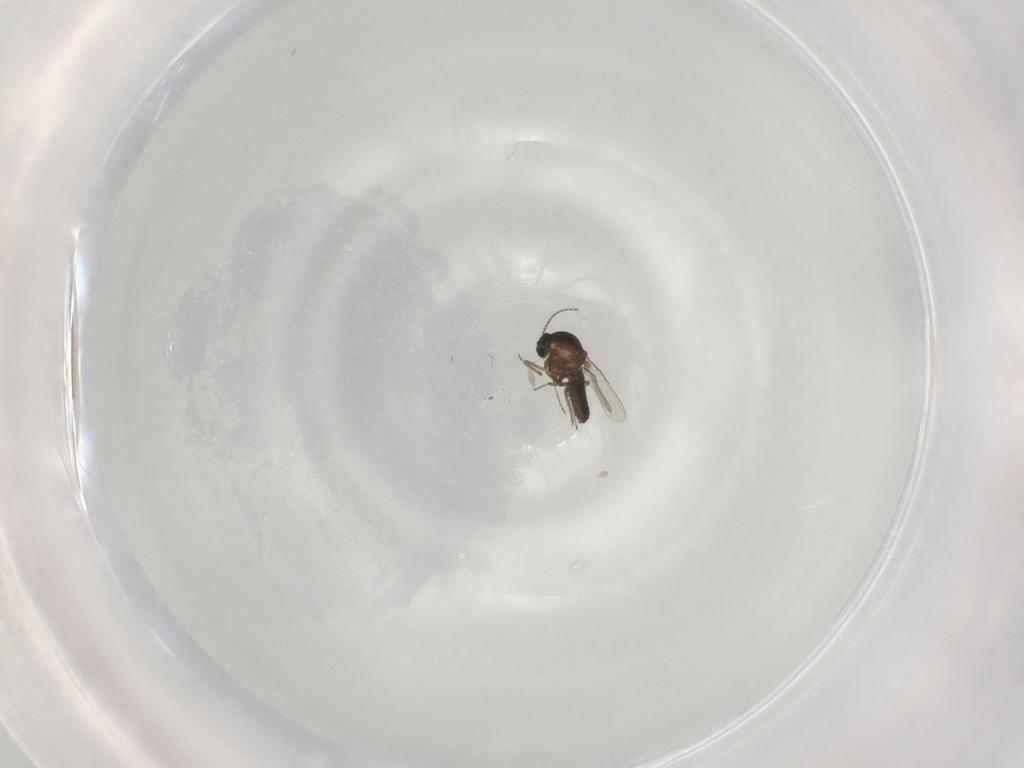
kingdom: Animalia
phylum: Arthropoda
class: Insecta
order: Diptera
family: Ceratopogonidae
